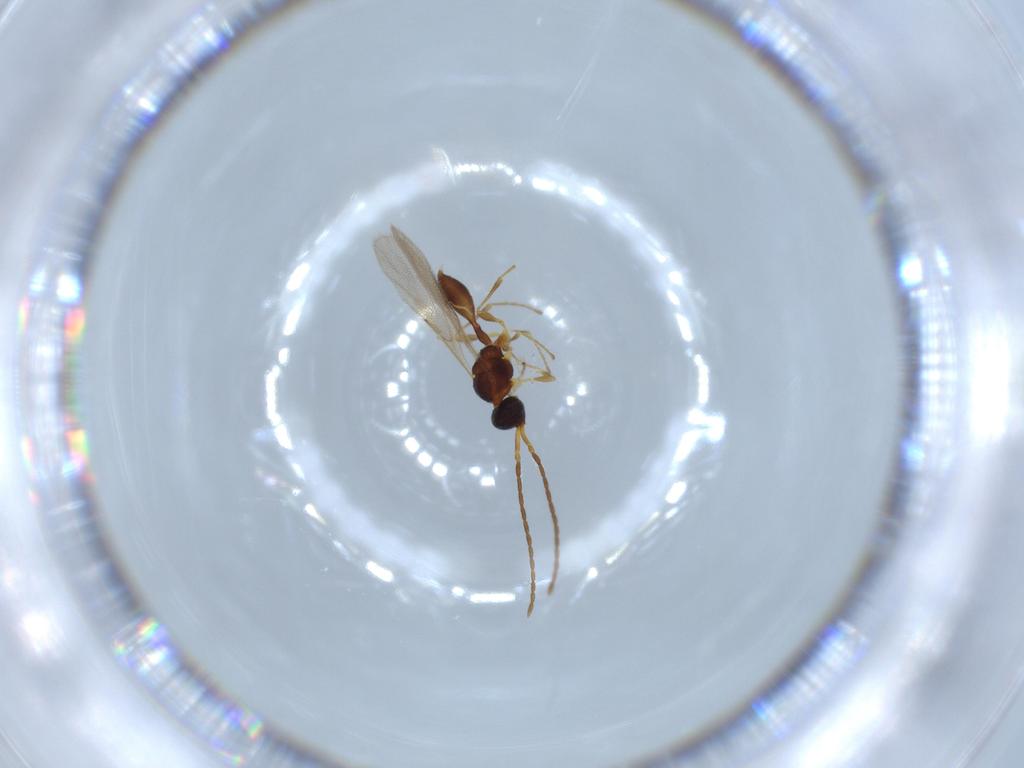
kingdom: Animalia
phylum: Arthropoda
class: Insecta
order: Hymenoptera
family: Diapriidae
